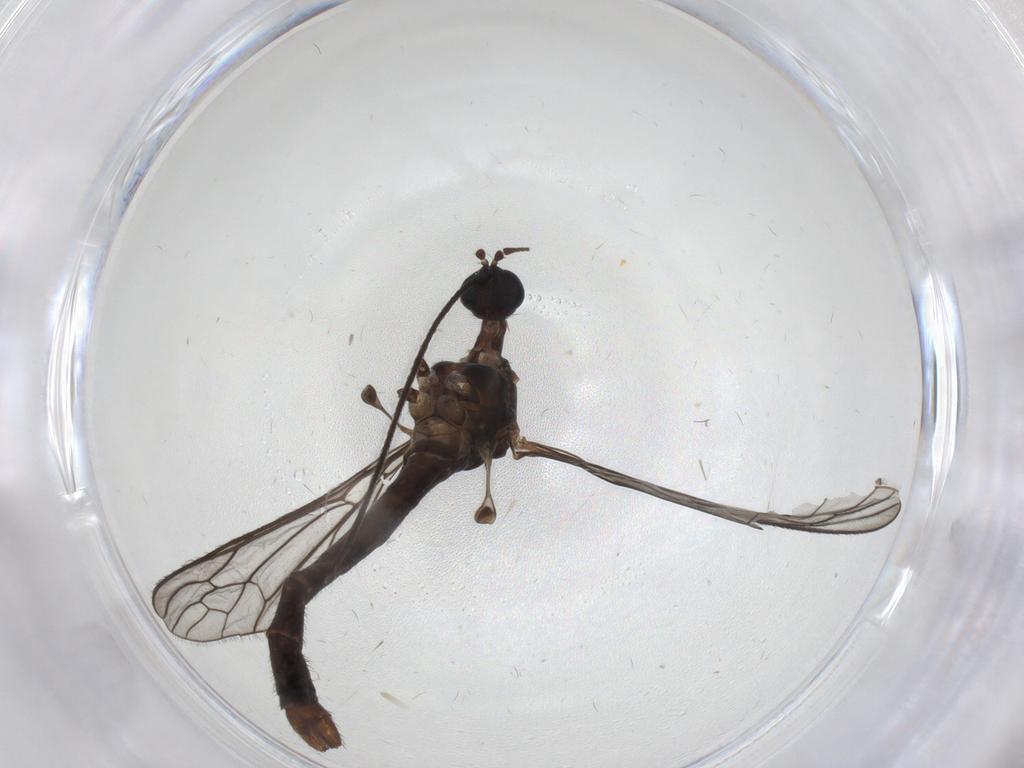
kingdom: Animalia
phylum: Arthropoda
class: Insecta
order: Diptera
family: Limoniidae
